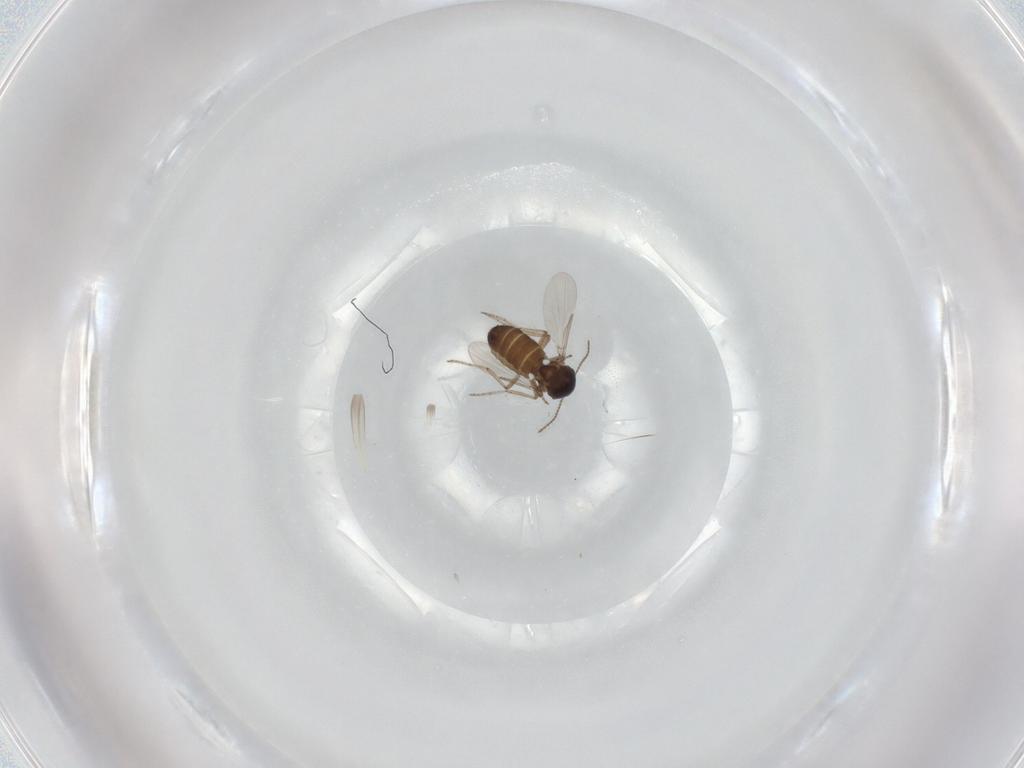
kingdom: Animalia
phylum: Arthropoda
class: Insecta
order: Diptera
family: Ceratopogonidae
